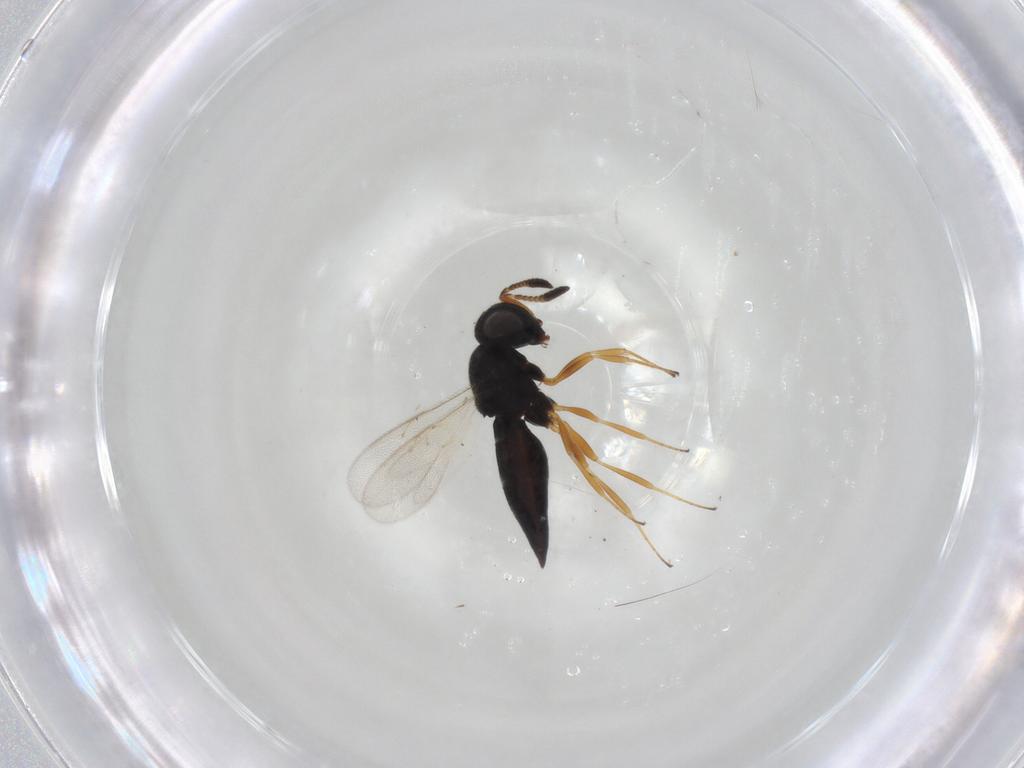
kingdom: Animalia
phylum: Arthropoda
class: Insecta
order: Hymenoptera
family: Scelionidae
